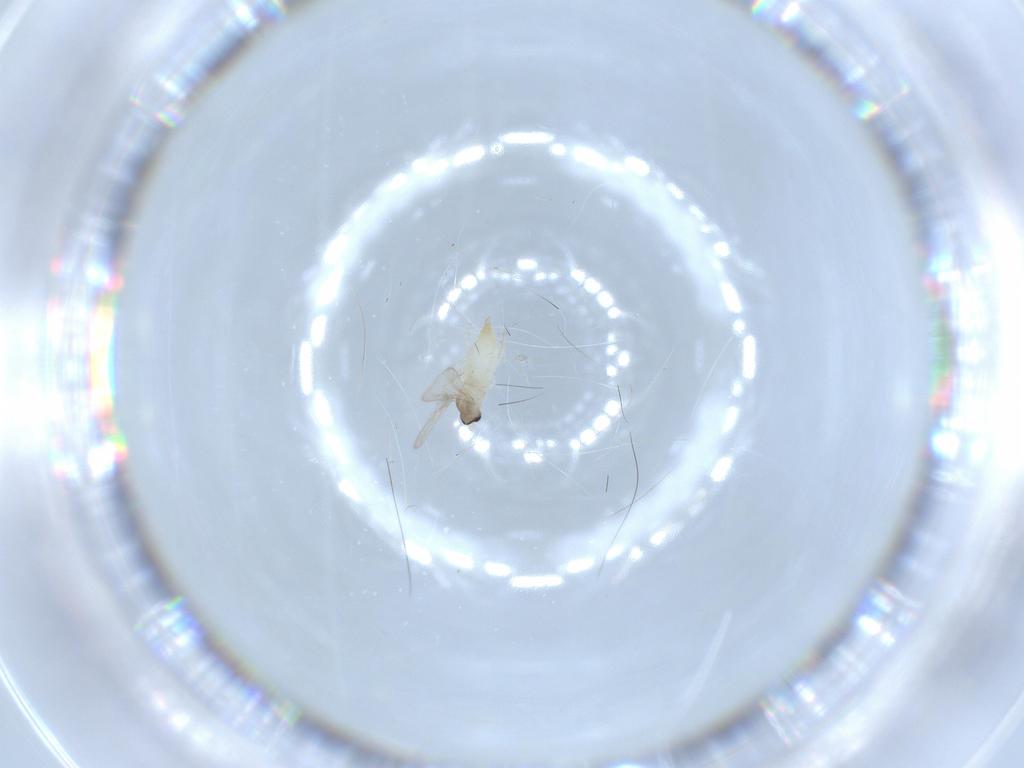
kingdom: Animalia
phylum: Arthropoda
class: Insecta
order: Diptera
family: Cecidomyiidae
